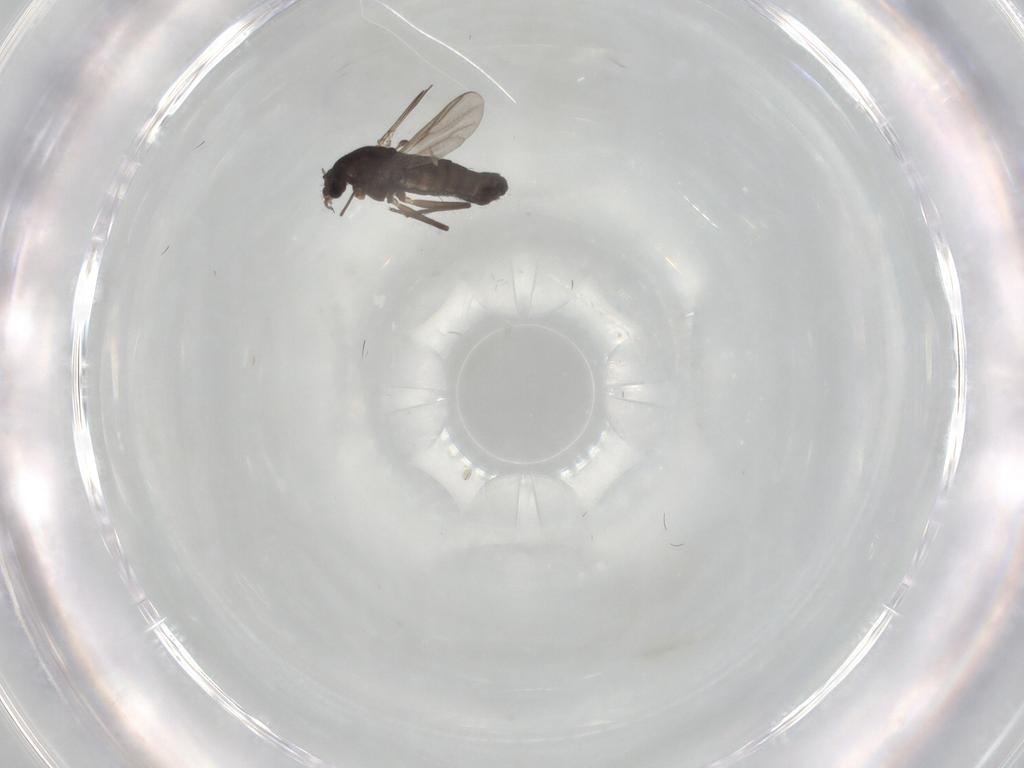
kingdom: Animalia
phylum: Arthropoda
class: Insecta
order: Diptera
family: Chironomidae
